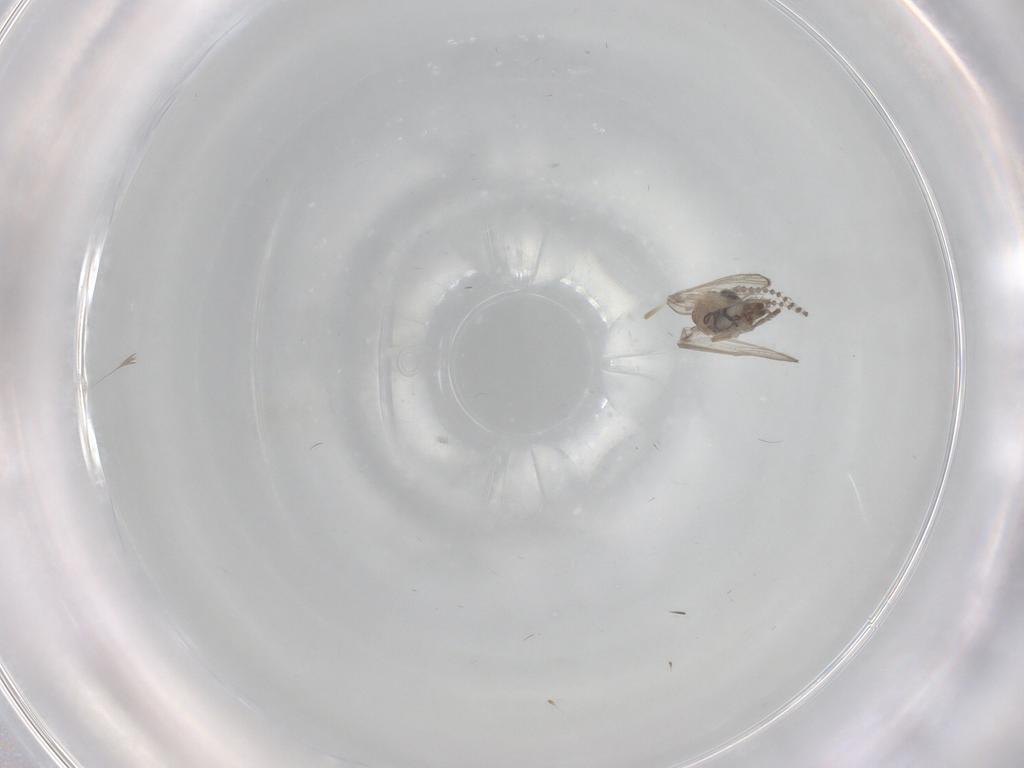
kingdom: Animalia
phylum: Arthropoda
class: Insecta
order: Diptera
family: Psychodidae
